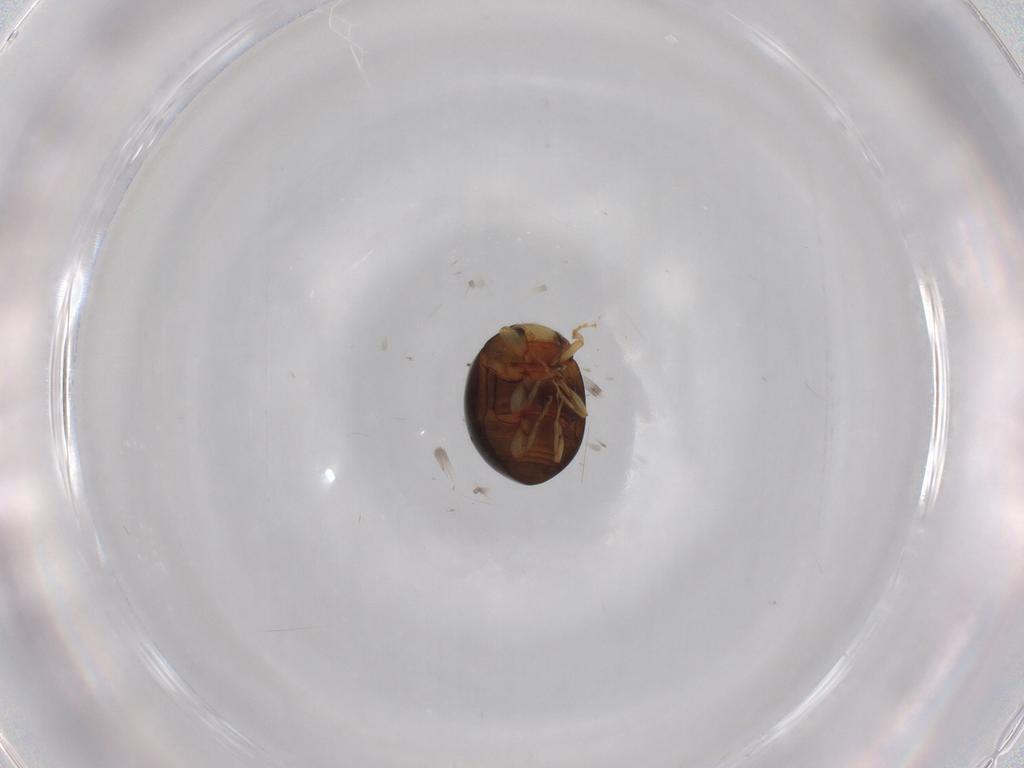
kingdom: Animalia
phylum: Arthropoda
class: Insecta
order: Coleoptera
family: Coccinellidae
